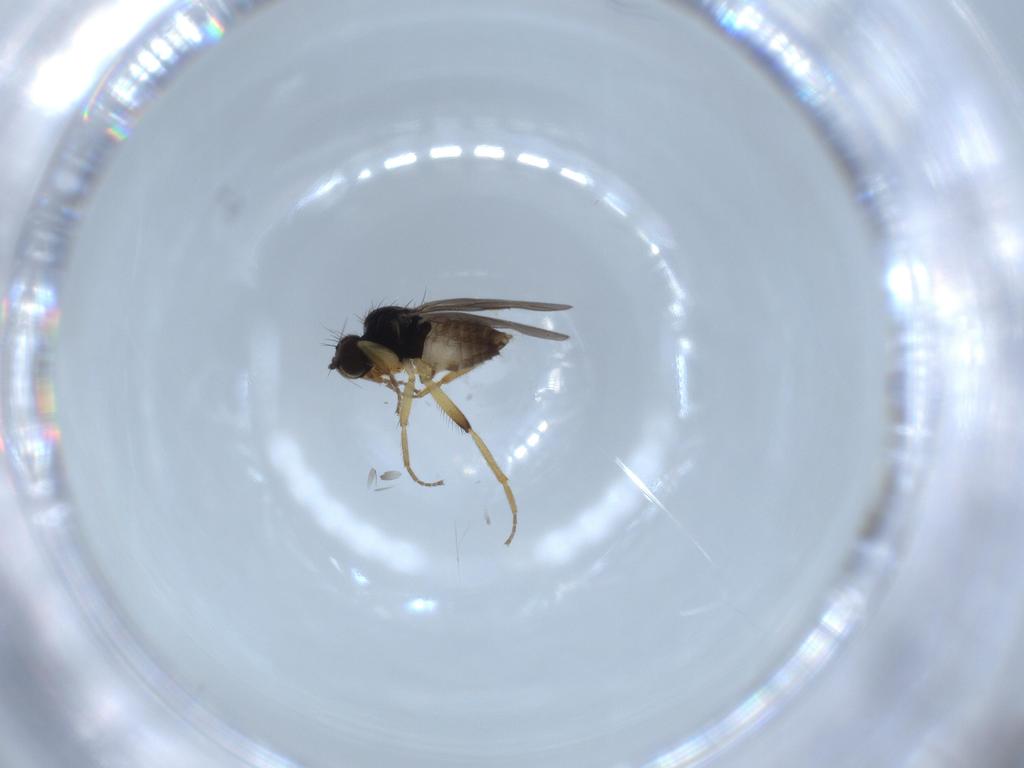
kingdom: Animalia
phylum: Arthropoda
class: Insecta
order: Diptera
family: Hybotidae
